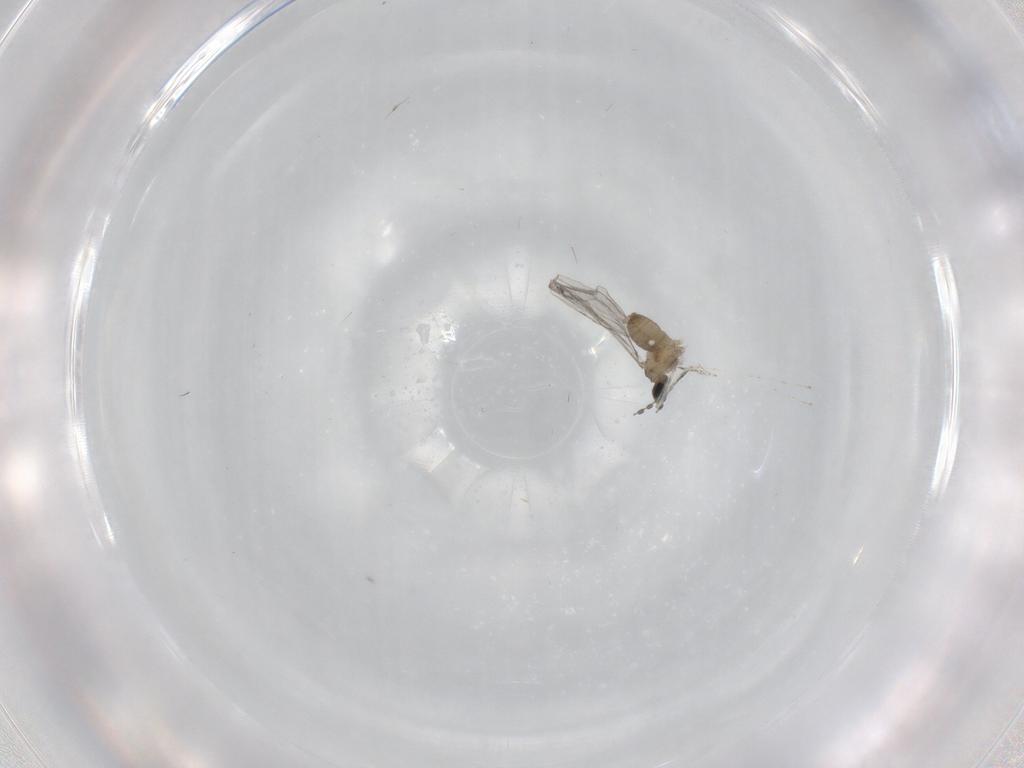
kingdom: Animalia
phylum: Arthropoda
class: Insecta
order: Diptera
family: Cecidomyiidae
